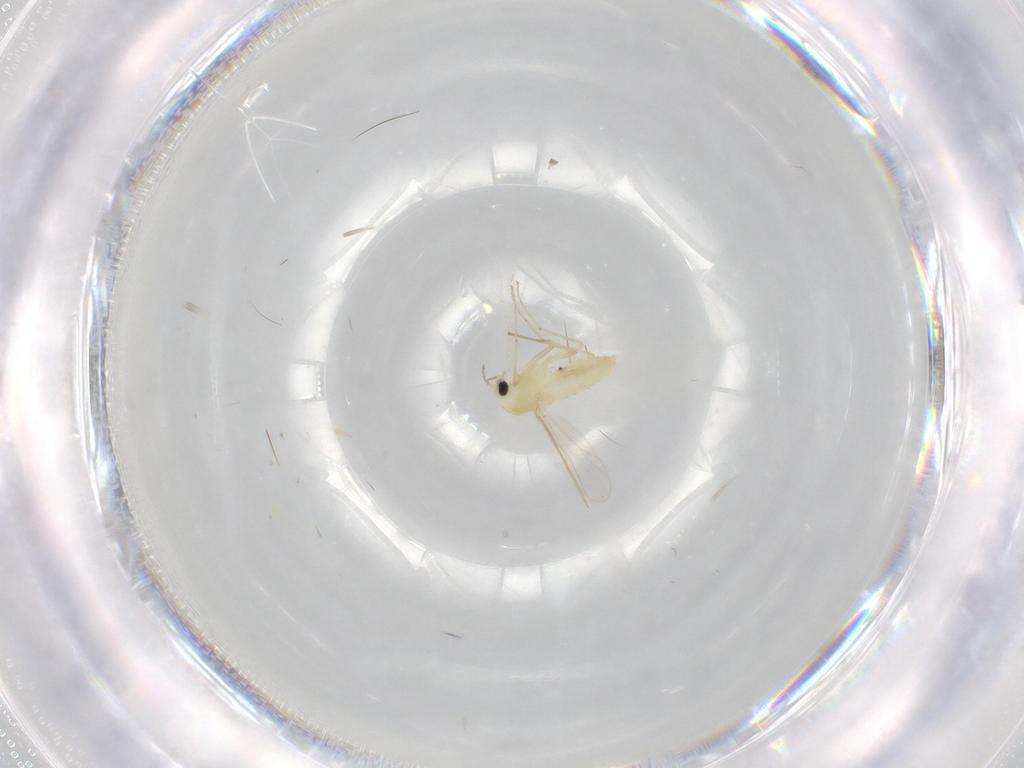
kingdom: Animalia
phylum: Arthropoda
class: Insecta
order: Diptera
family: Chironomidae
